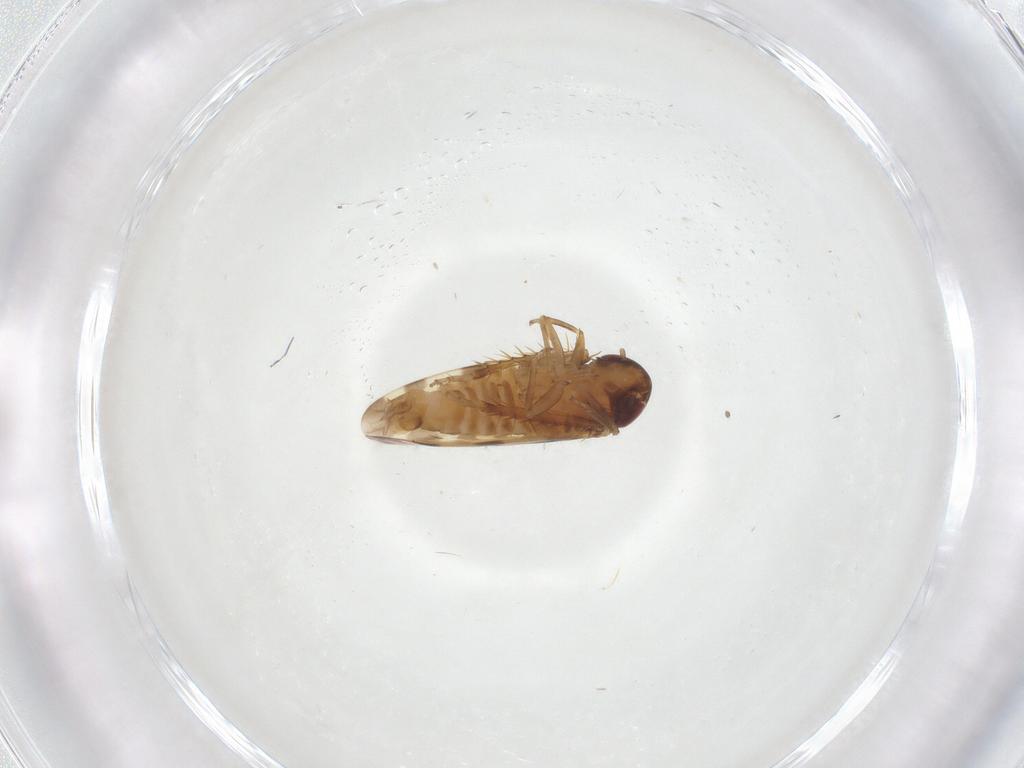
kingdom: Animalia
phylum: Arthropoda
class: Insecta
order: Hemiptera
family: Cicadellidae
